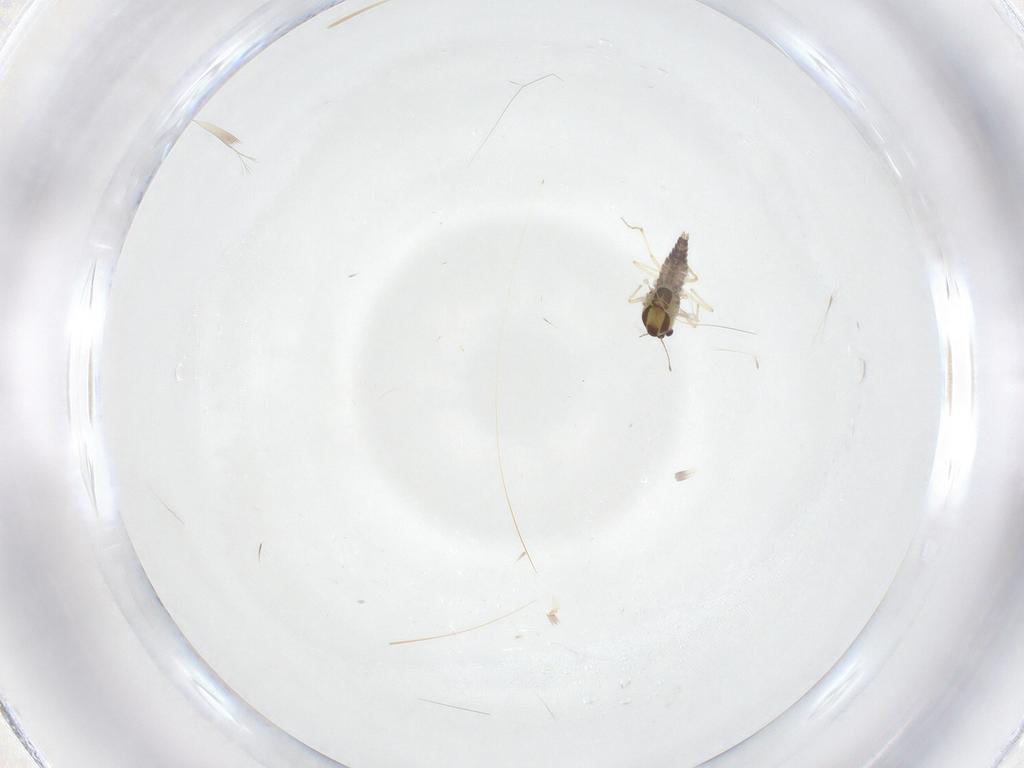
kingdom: Animalia
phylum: Arthropoda
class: Insecta
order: Diptera
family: Chironomidae
